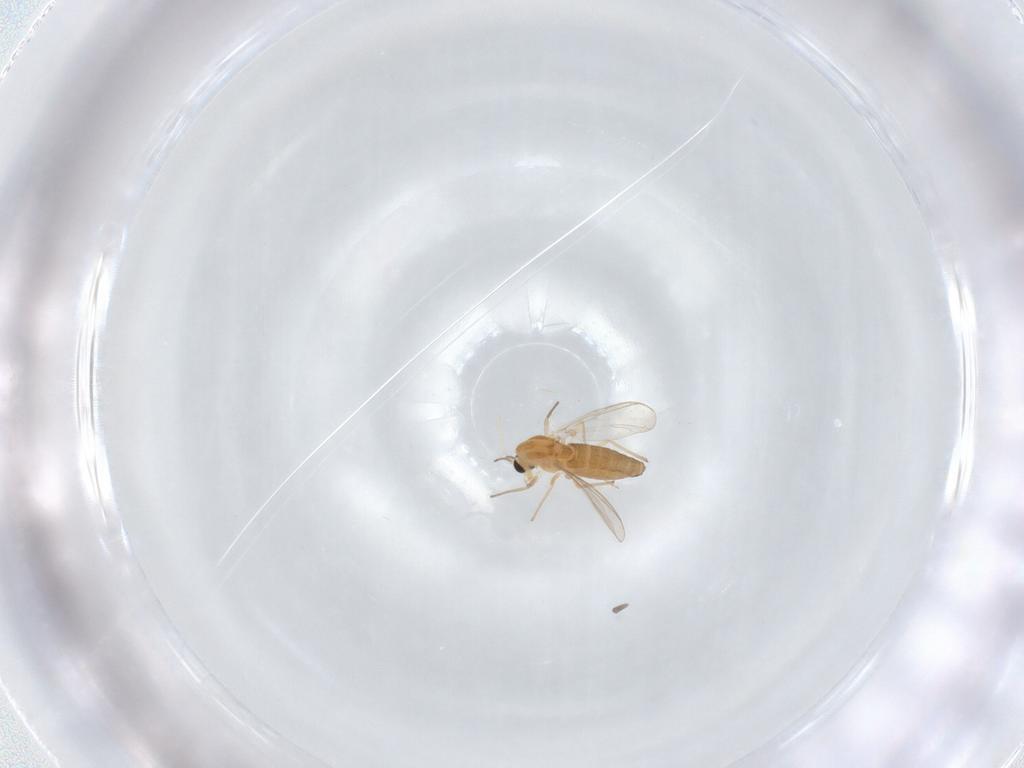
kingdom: Animalia
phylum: Arthropoda
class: Insecta
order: Diptera
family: Chironomidae
